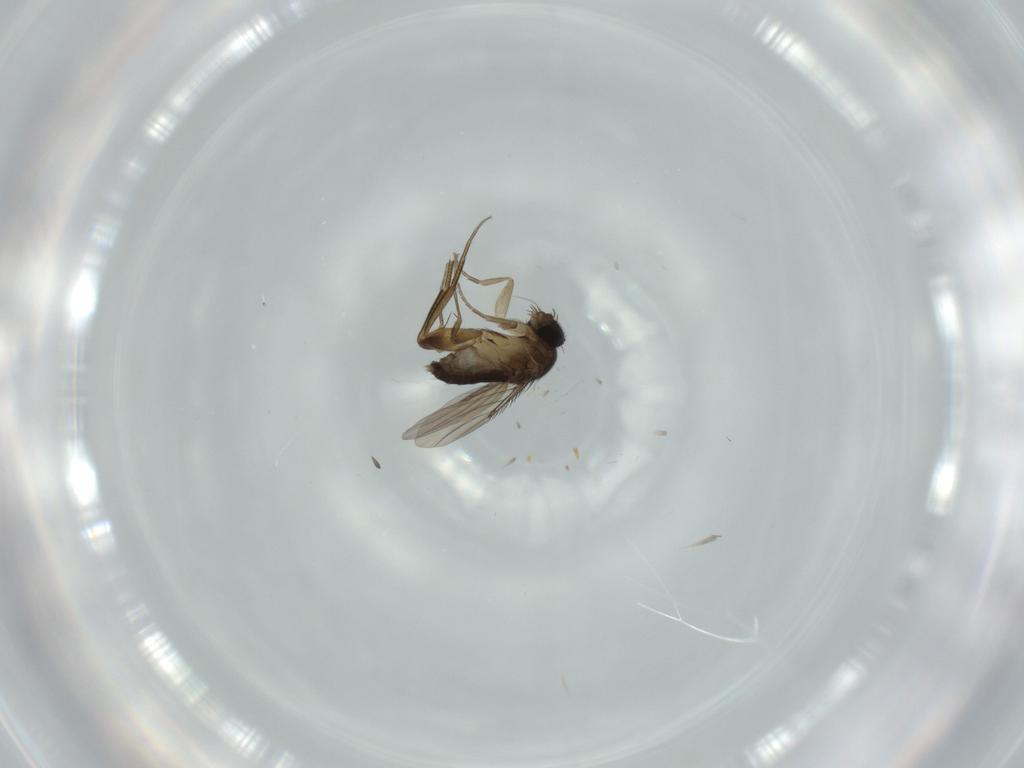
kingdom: Animalia
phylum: Arthropoda
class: Insecta
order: Diptera
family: Phoridae
